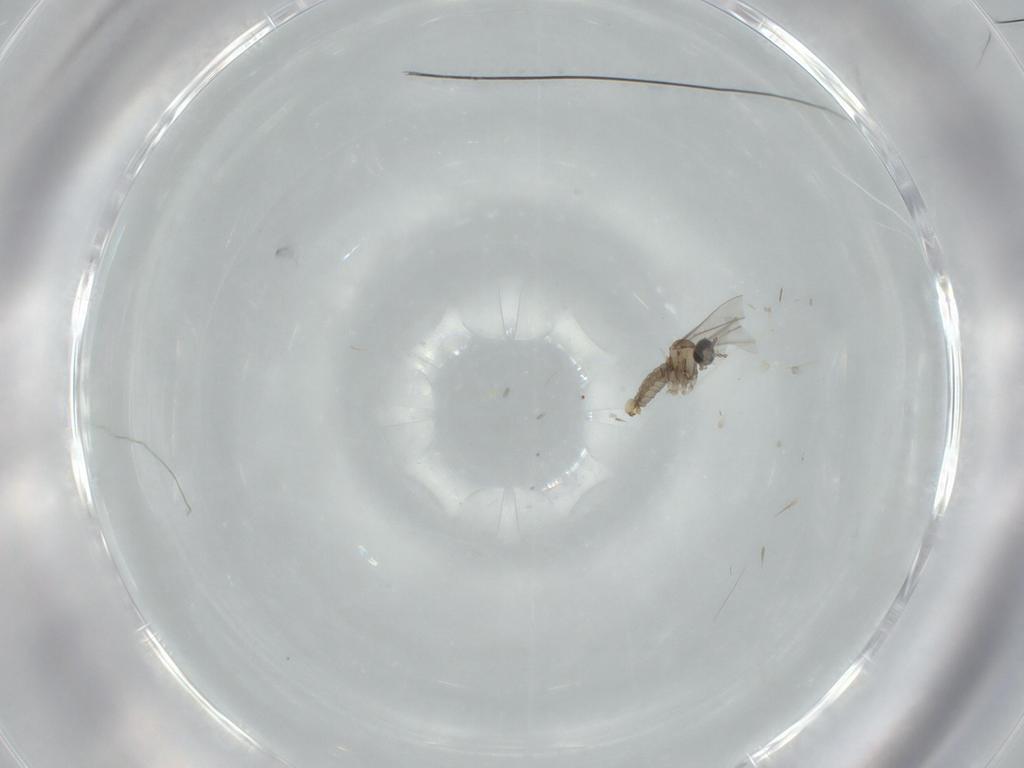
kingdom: Animalia
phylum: Arthropoda
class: Insecta
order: Diptera
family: Cecidomyiidae
